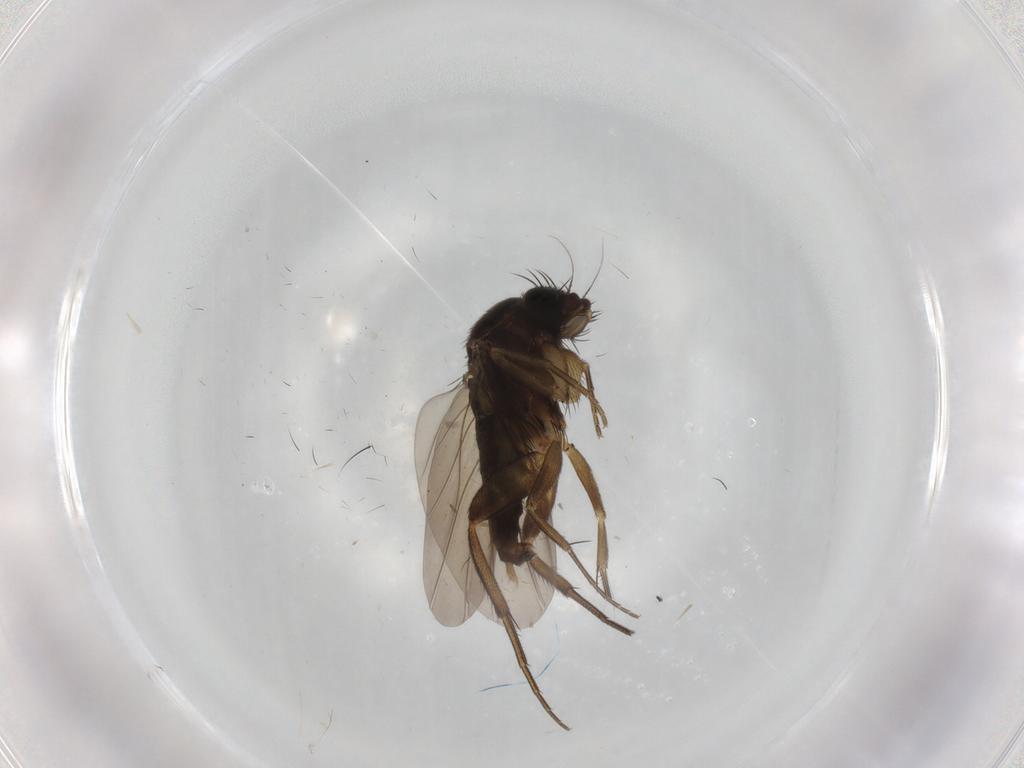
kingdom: Animalia
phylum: Arthropoda
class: Insecta
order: Diptera
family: Phoridae
